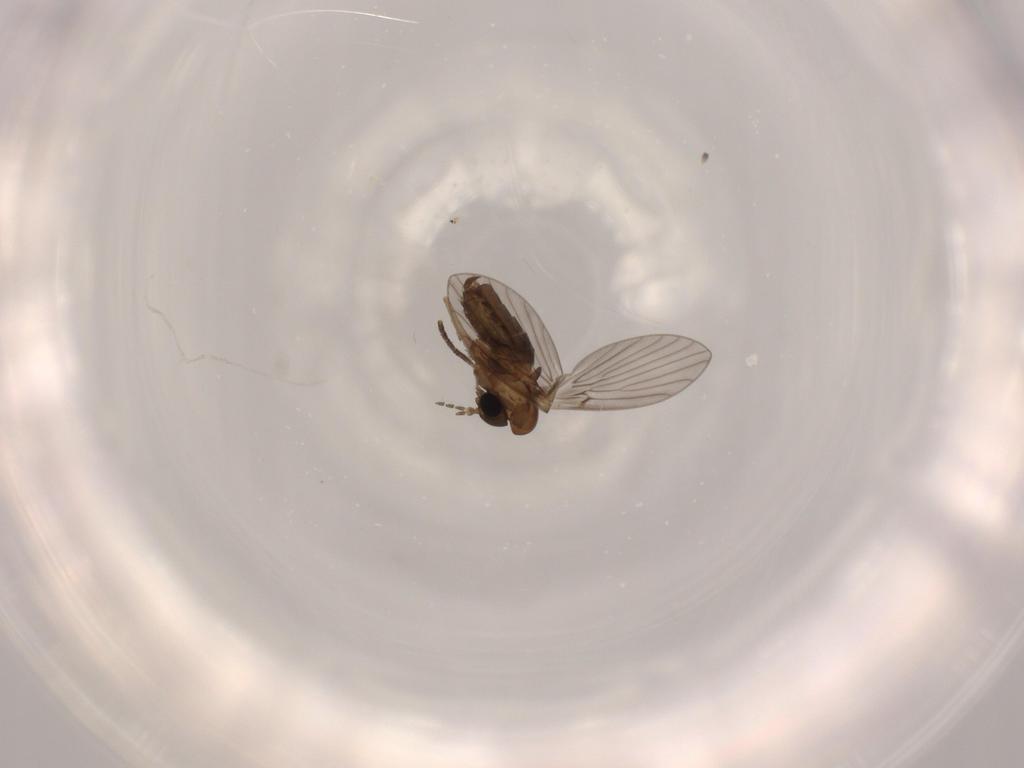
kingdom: Animalia
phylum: Arthropoda
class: Insecta
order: Diptera
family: Psychodidae
